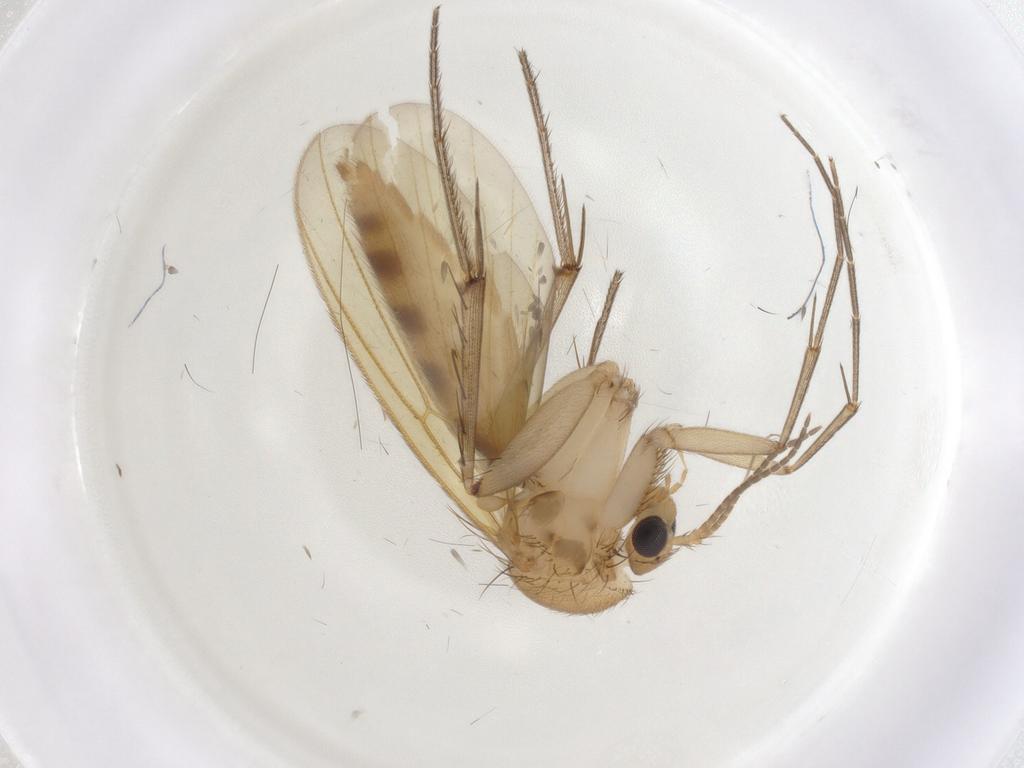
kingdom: Animalia
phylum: Arthropoda
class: Insecta
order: Diptera
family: Mycetophilidae
